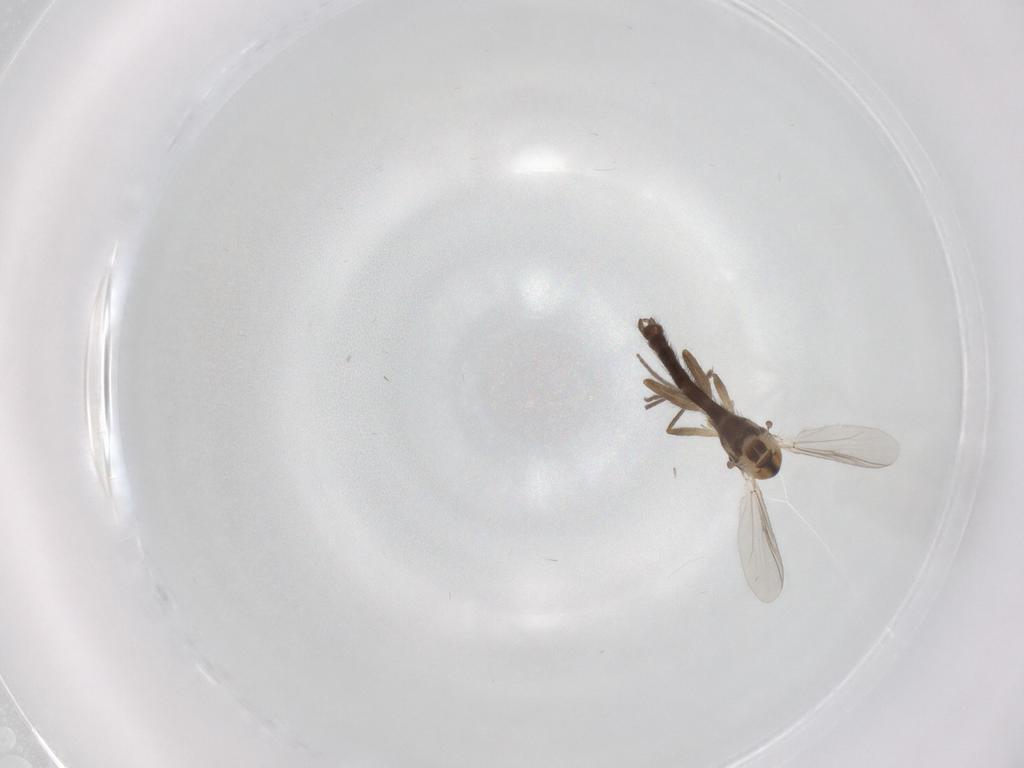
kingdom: Animalia
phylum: Arthropoda
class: Insecta
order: Diptera
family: Chironomidae
